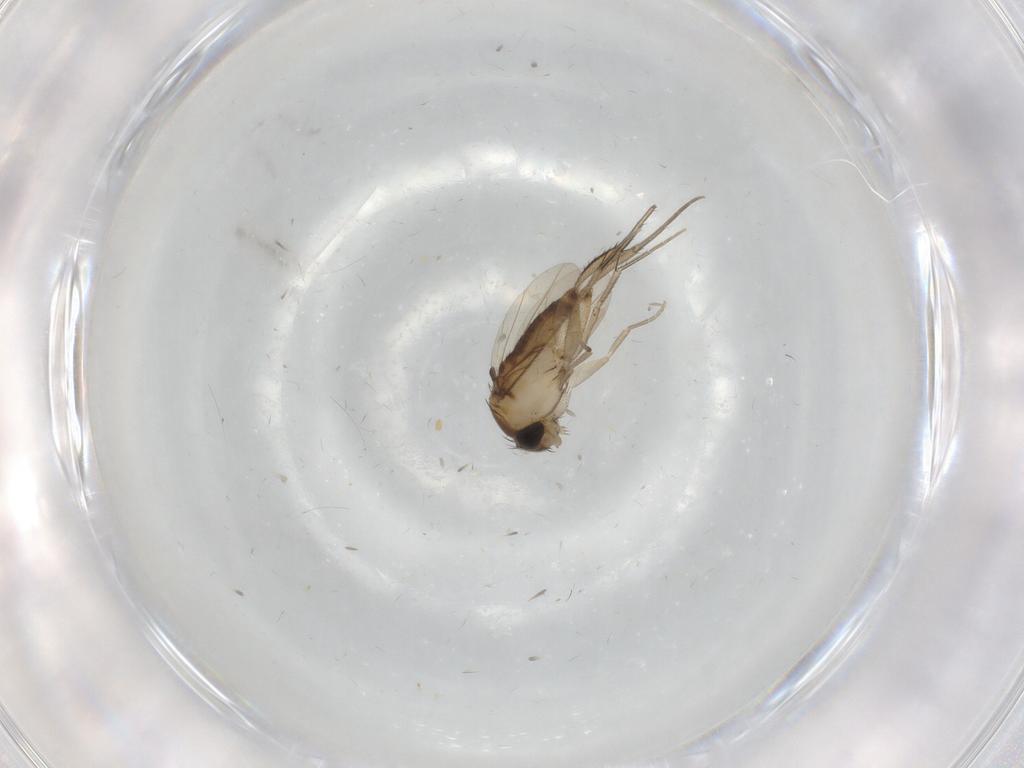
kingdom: Animalia
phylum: Arthropoda
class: Insecta
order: Diptera
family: Phoridae
